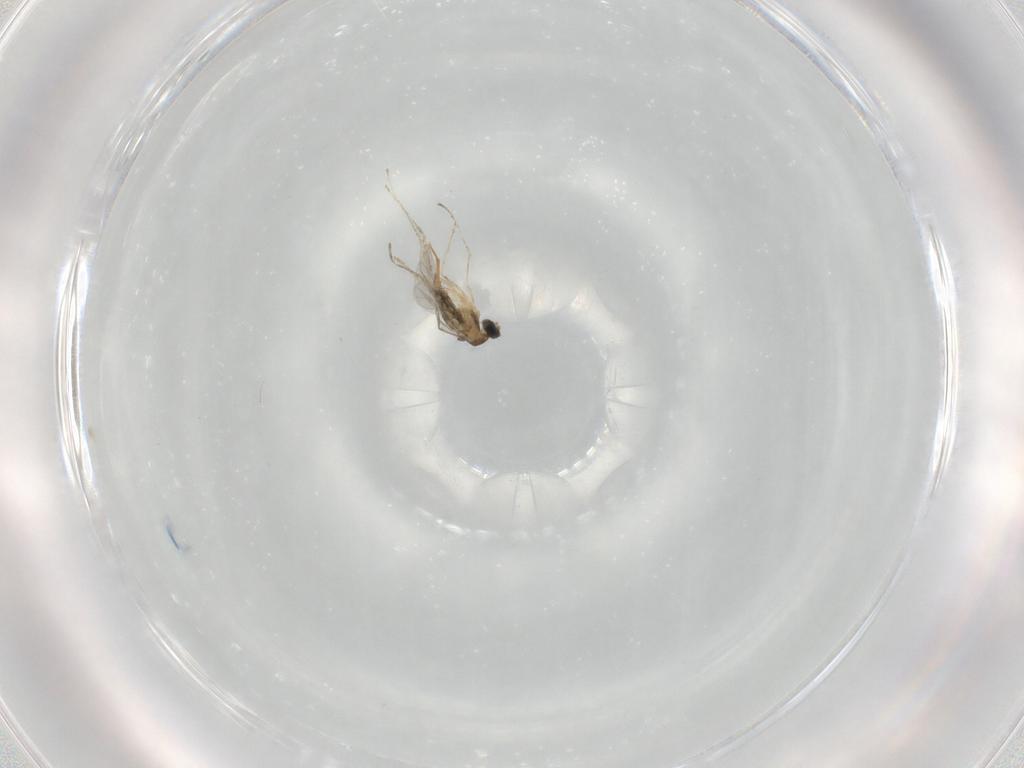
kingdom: Animalia
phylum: Arthropoda
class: Insecta
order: Diptera
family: Cecidomyiidae
